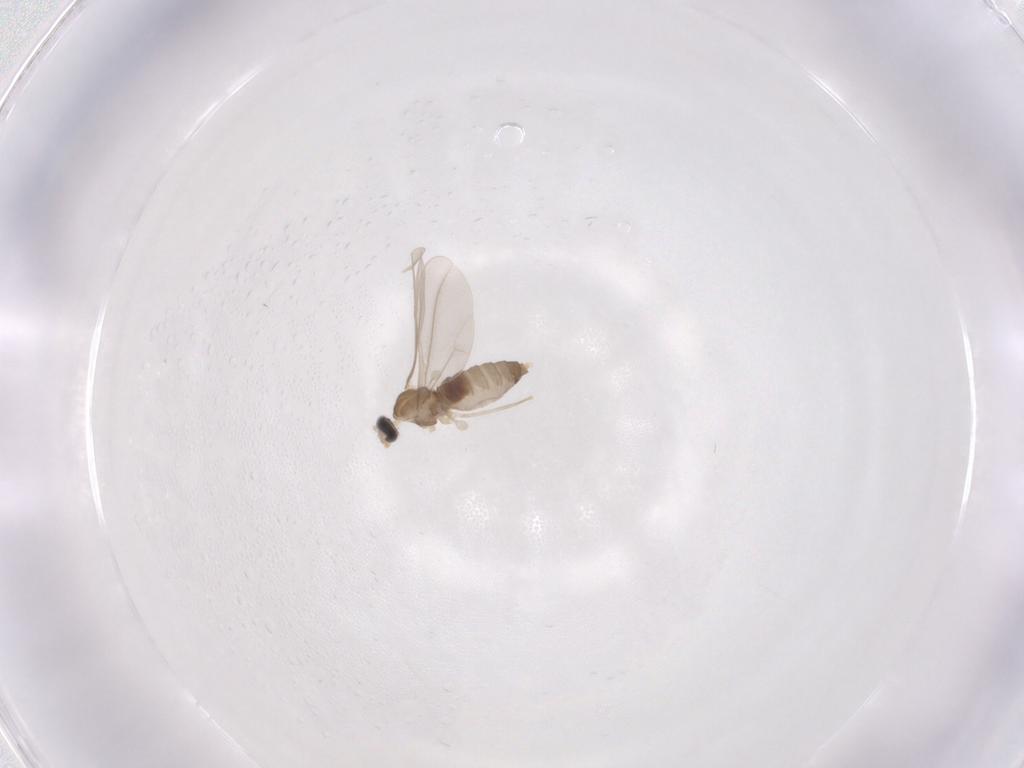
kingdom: Animalia
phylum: Arthropoda
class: Insecta
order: Diptera
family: Cecidomyiidae
